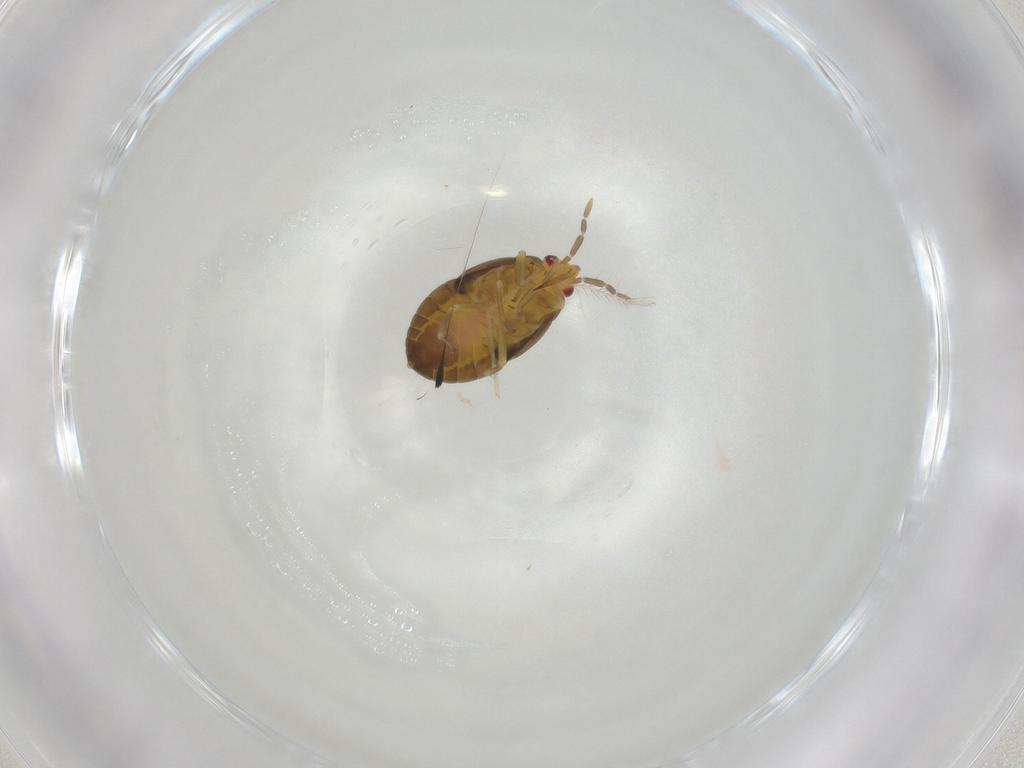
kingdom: Animalia
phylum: Arthropoda
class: Insecta
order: Hemiptera
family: Anthocoridae
